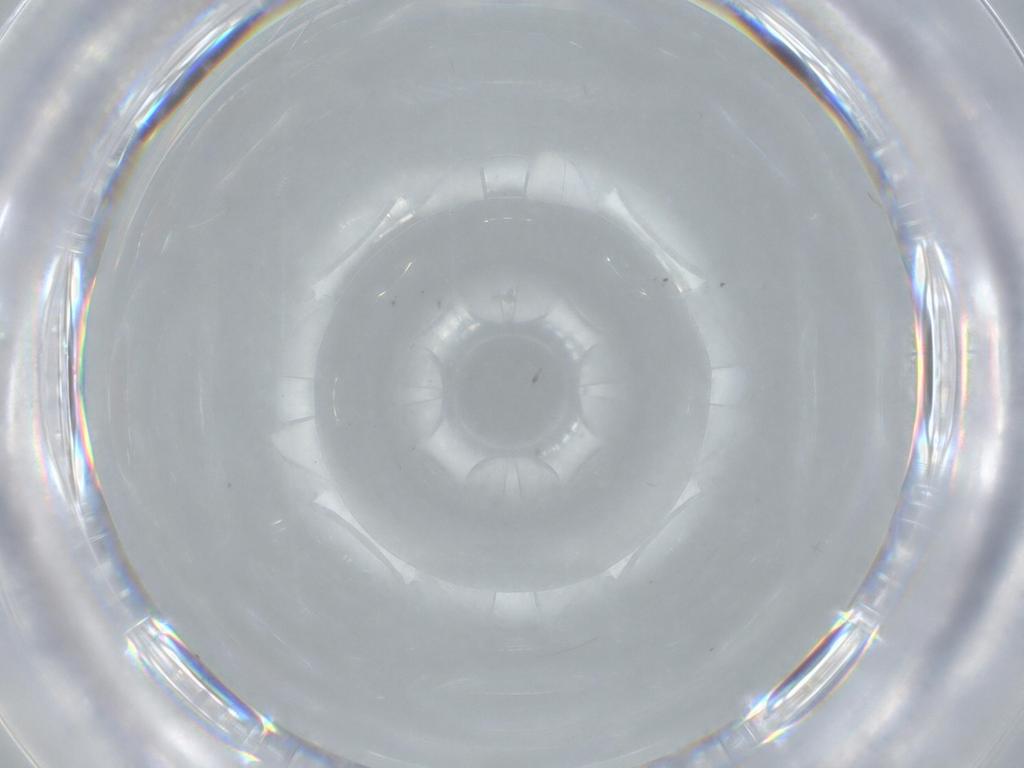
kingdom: Animalia
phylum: Arthropoda
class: Insecta
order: Hemiptera
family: Aleyrodidae
